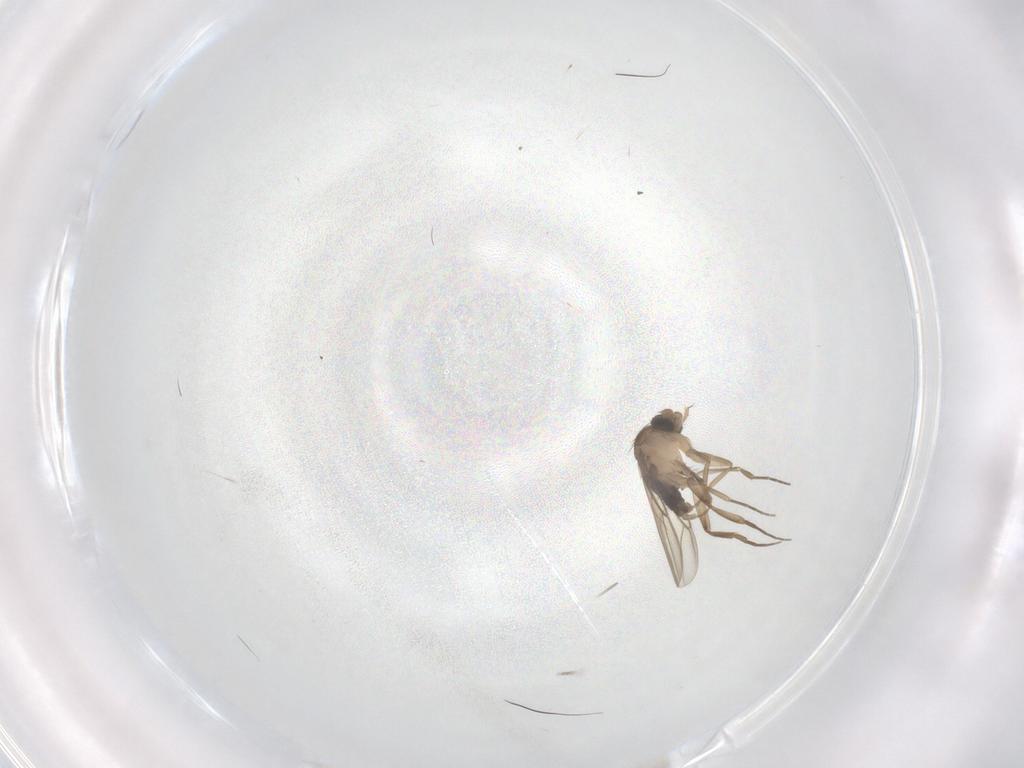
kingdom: Animalia
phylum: Arthropoda
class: Insecta
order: Diptera
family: Phoridae
